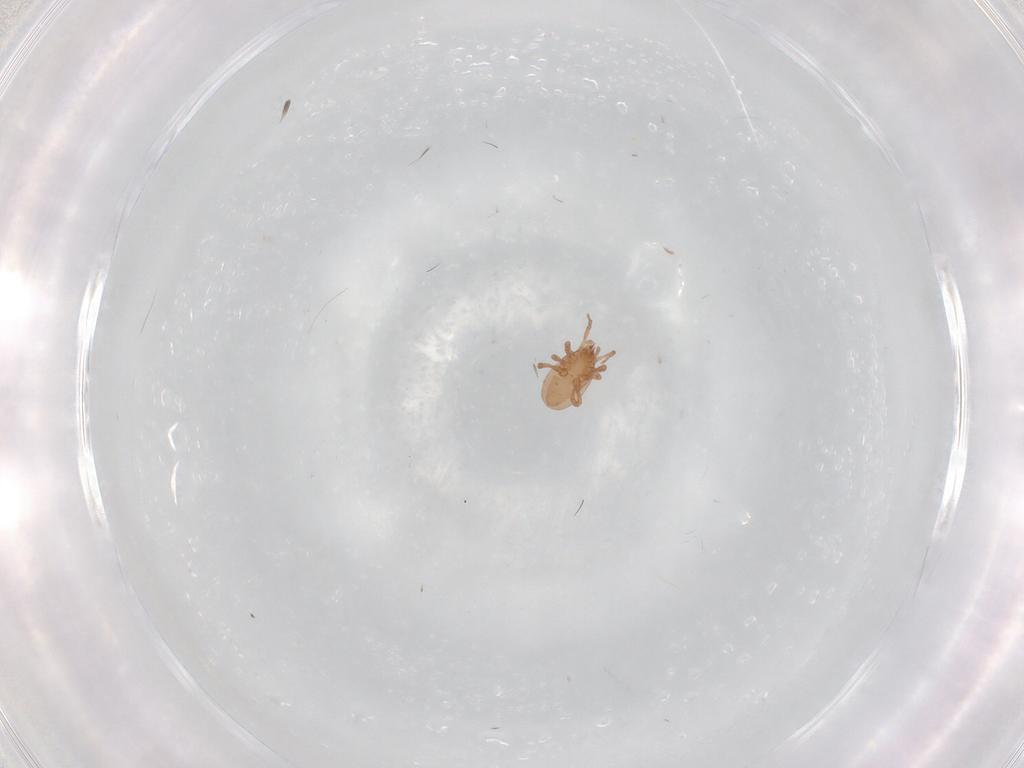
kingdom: Animalia
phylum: Arthropoda
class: Arachnida
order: Mesostigmata
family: Ologamasidae
